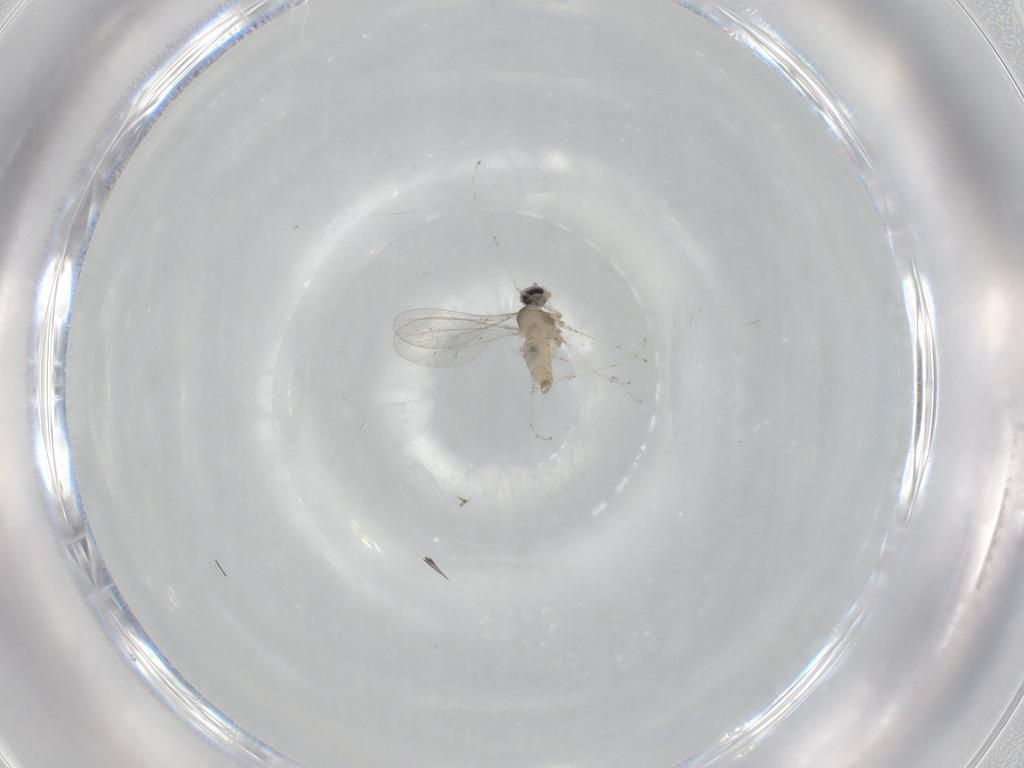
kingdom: Animalia
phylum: Arthropoda
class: Insecta
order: Diptera
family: Cecidomyiidae
